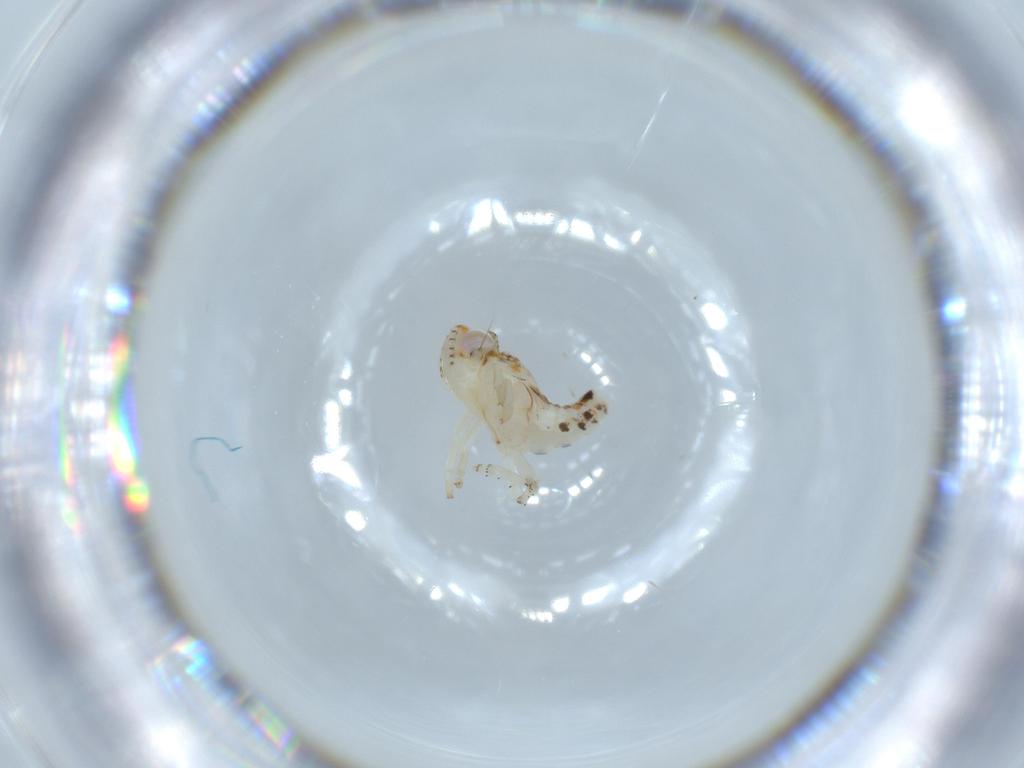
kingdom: Animalia
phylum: Arthropoda
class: Insecta
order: Hemiptera
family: Nogodinidae
